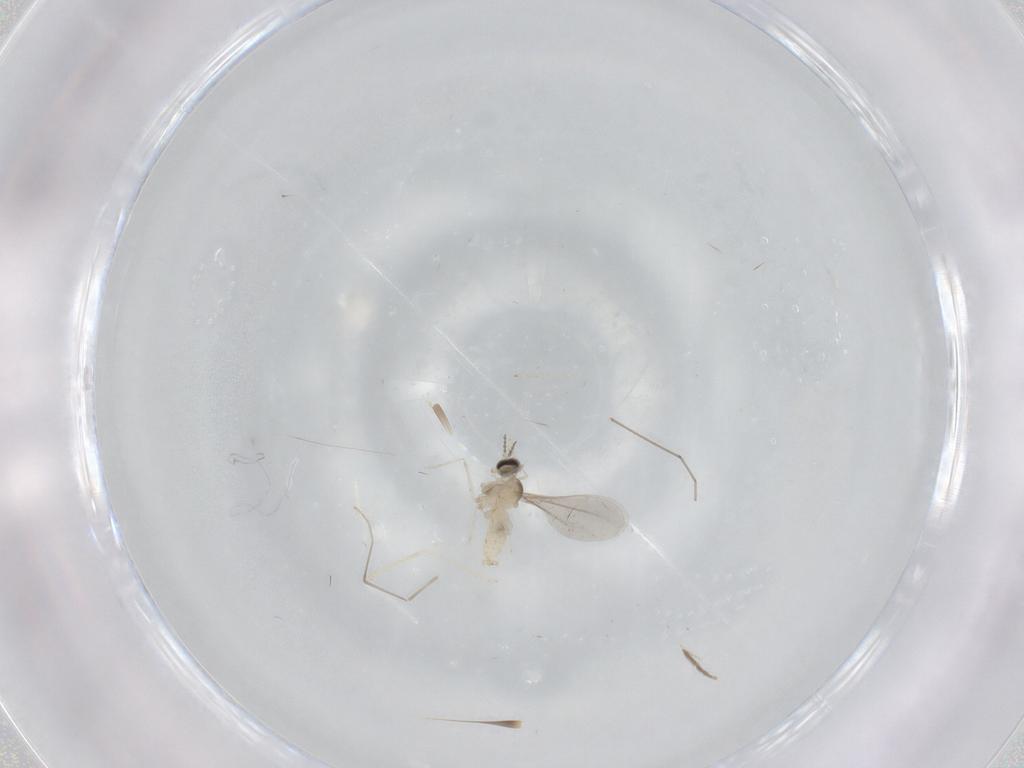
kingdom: Animalia
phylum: Arthropoda
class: Insecta
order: Diptera
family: Cecidomyiidae
